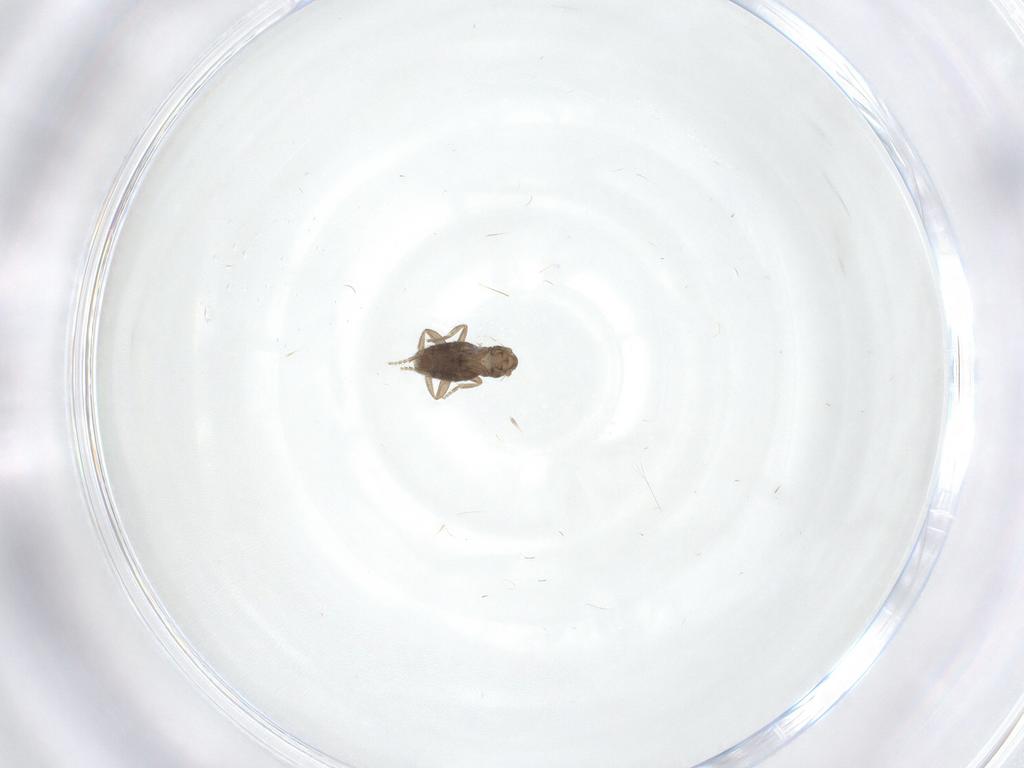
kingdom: Animalia
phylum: Arthropoda
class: Insecta
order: Diptera
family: Phoridae
